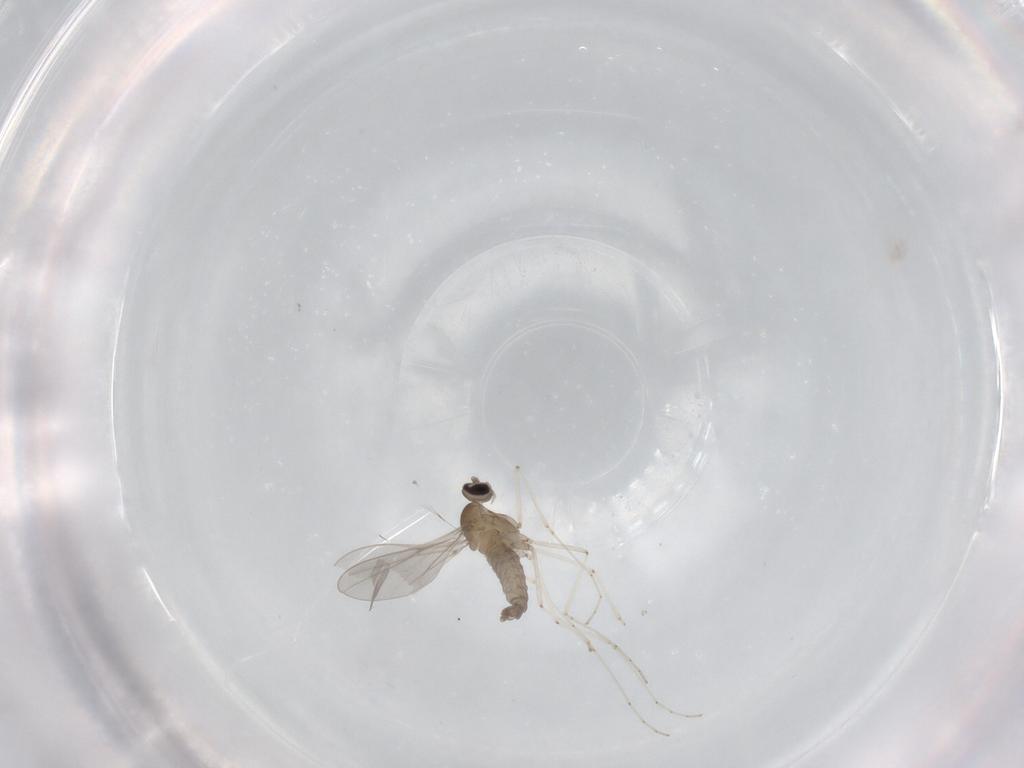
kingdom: Animalia
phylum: Arthropoda
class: Insecta
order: Diptera
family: Cecidomyiidae
